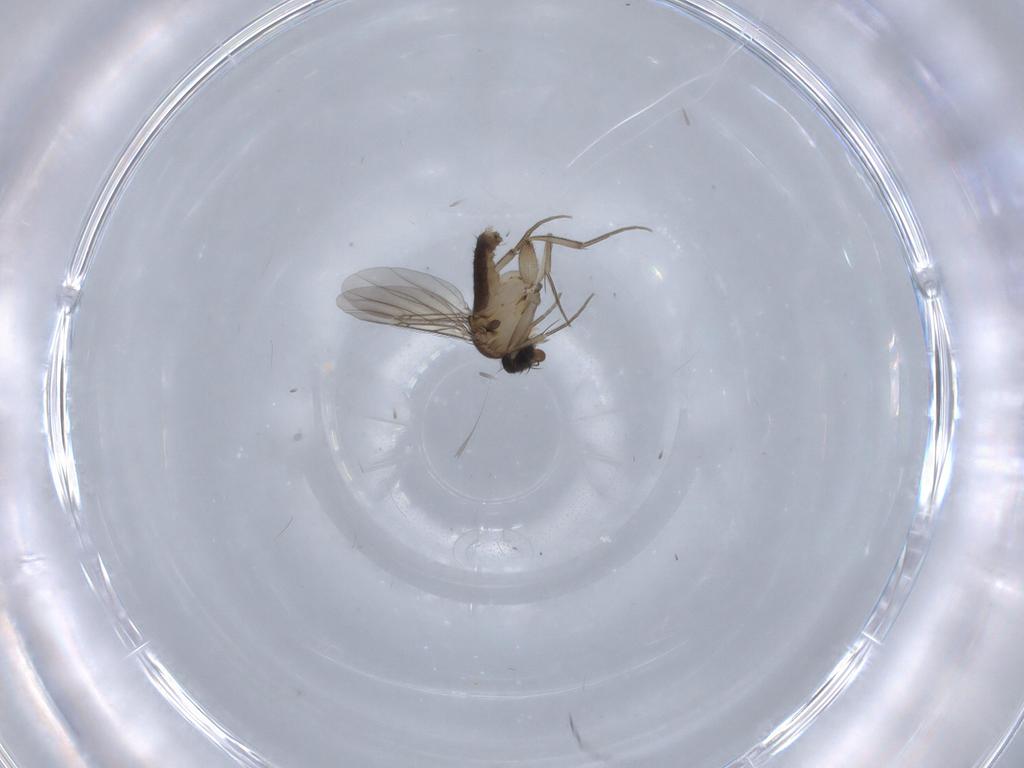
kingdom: Animalia
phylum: Arthropoda
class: Insecta
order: Diptera
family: Phoridae
